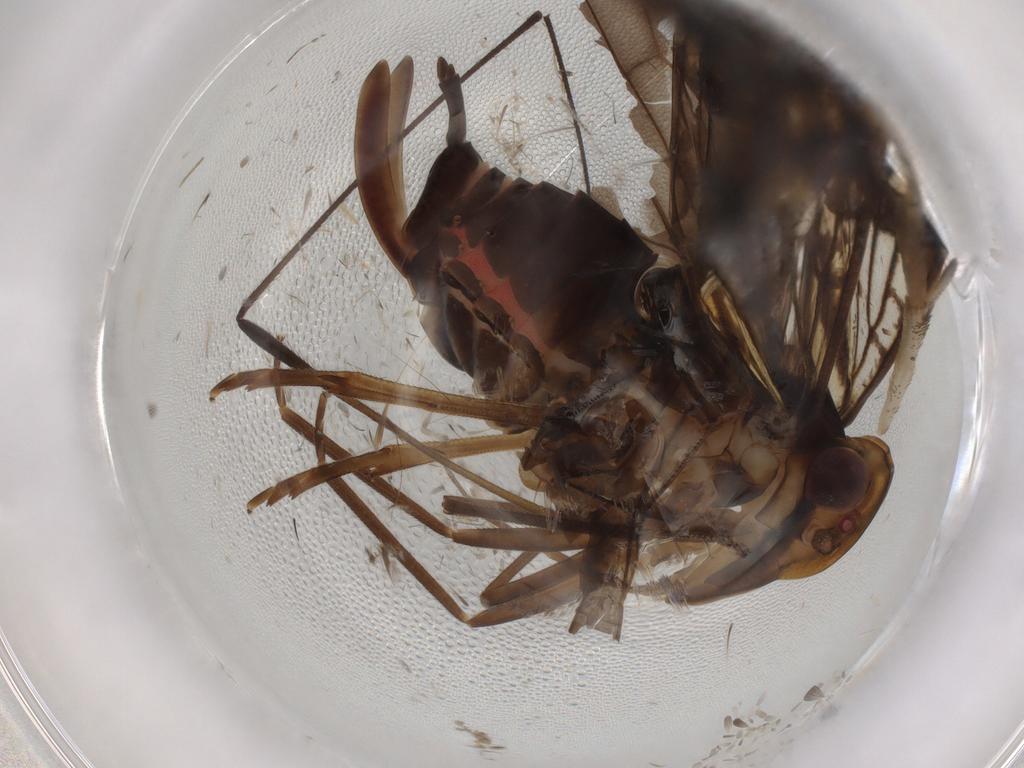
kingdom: Animalia
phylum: Arthropoda
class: Insecta
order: Hemiptera
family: Cixiidae
